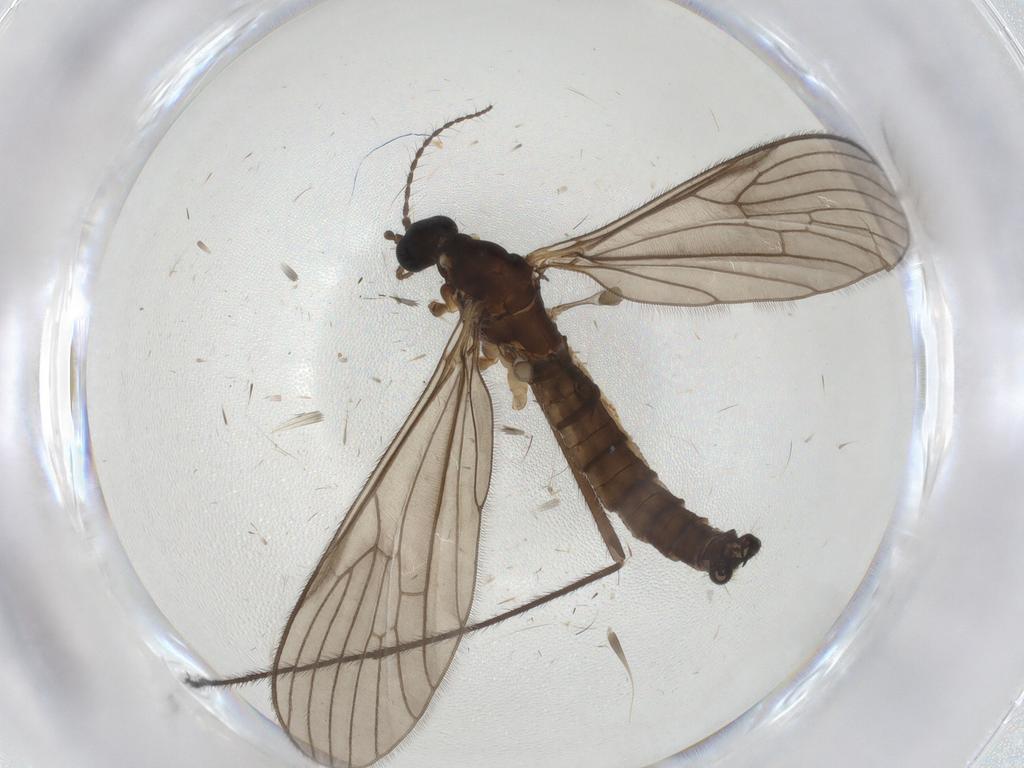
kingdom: Animalia
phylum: Arthropoda
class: Insecta
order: Diptera
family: Limoniidae
